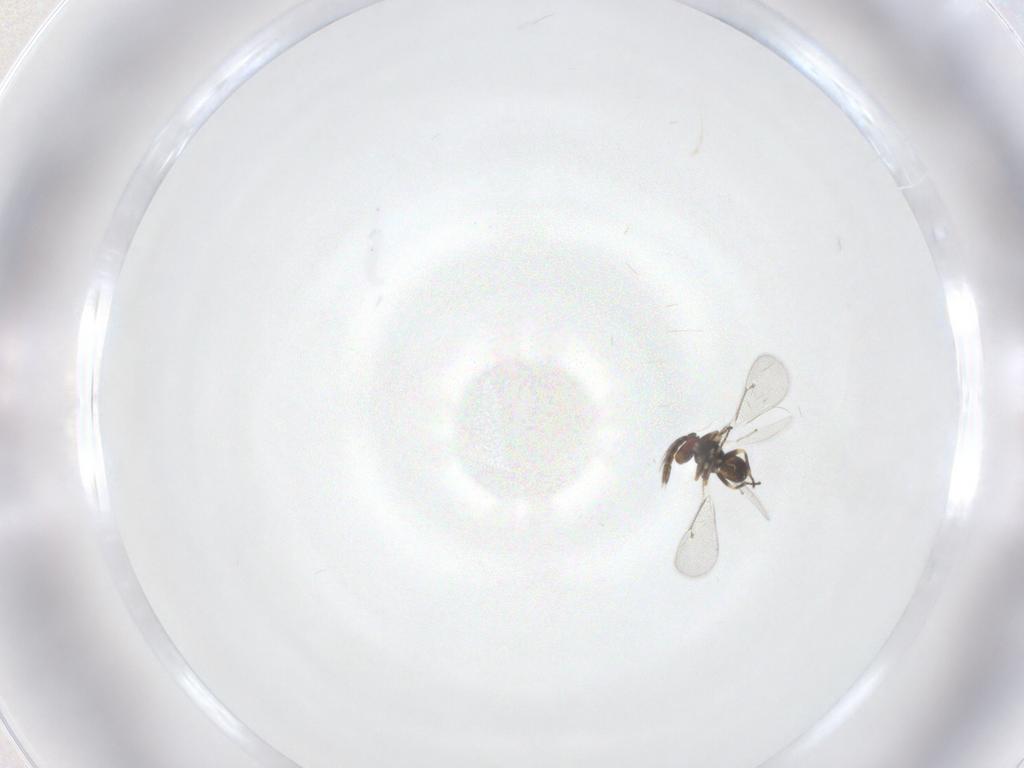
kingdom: Animalia
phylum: Arthropoda
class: Insecta
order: Hymenoptera
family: Eulophidae
